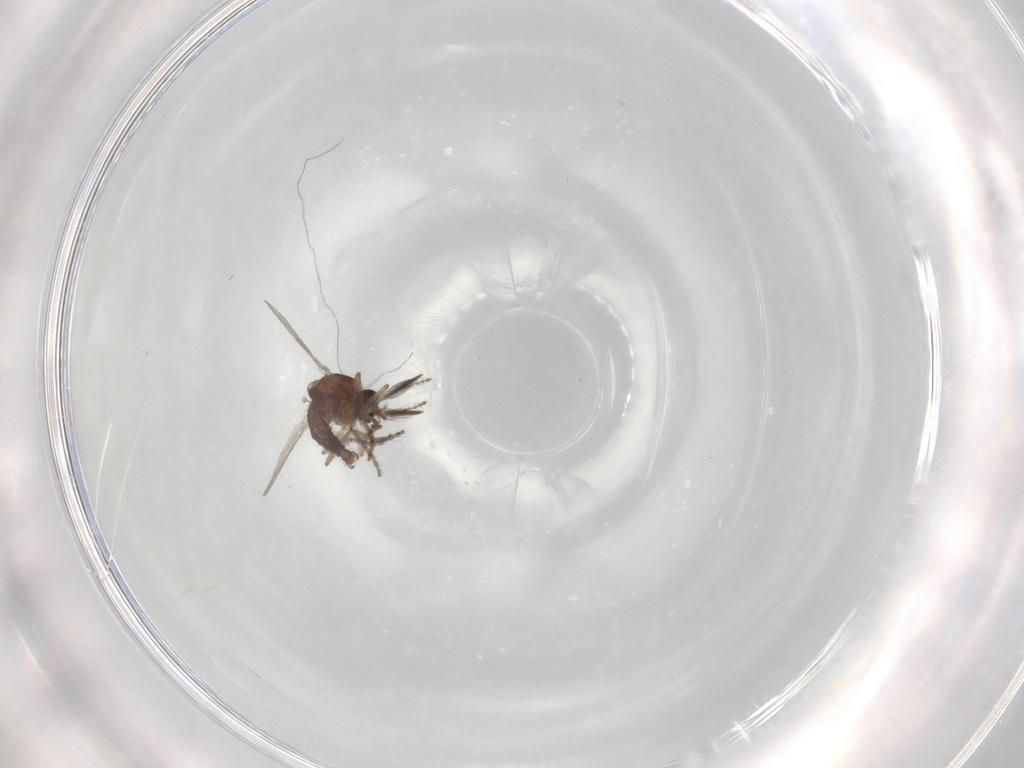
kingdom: Animalia
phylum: Arthropoda
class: Insecta
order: Diptera
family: Ceratopogonidae
